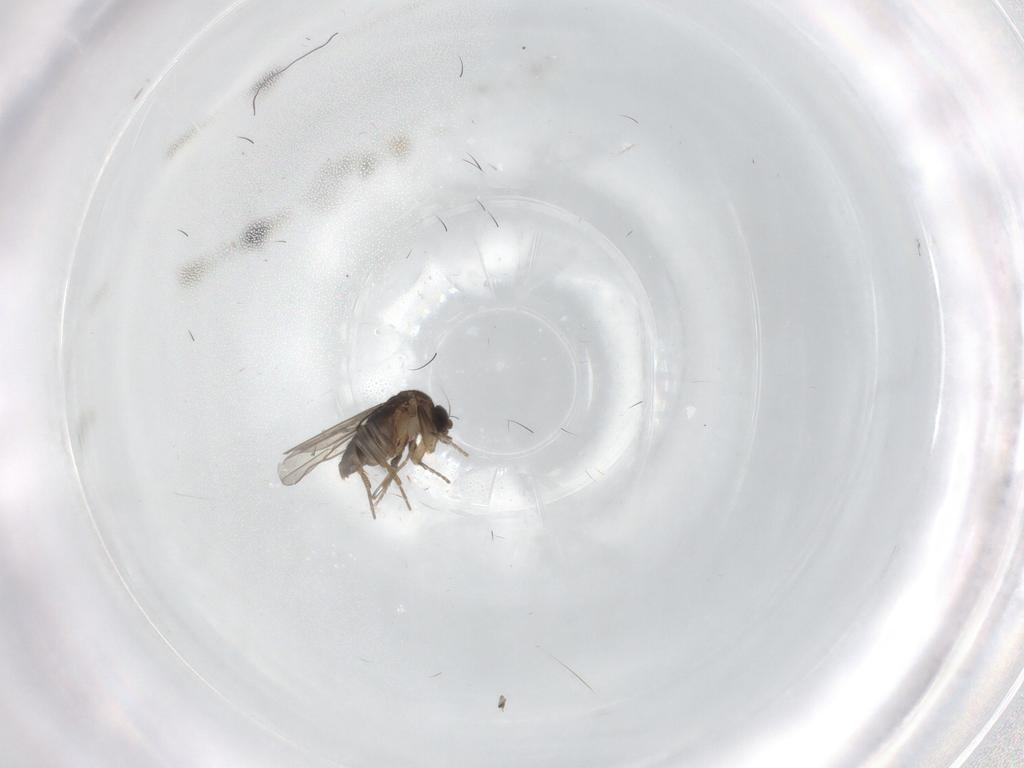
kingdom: Animalia
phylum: Arthropoda
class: Insecta
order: Diptera
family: Phoridae
